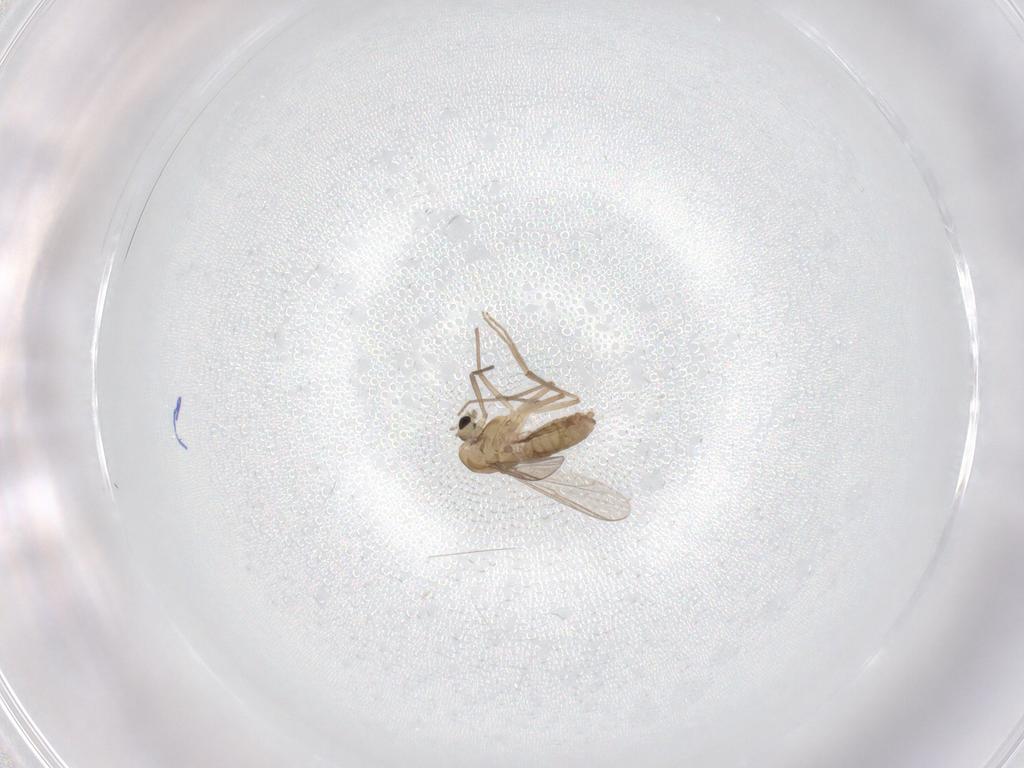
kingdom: Animalia
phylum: Arthropoda
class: Insecta
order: Diptera
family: Chironomidae
